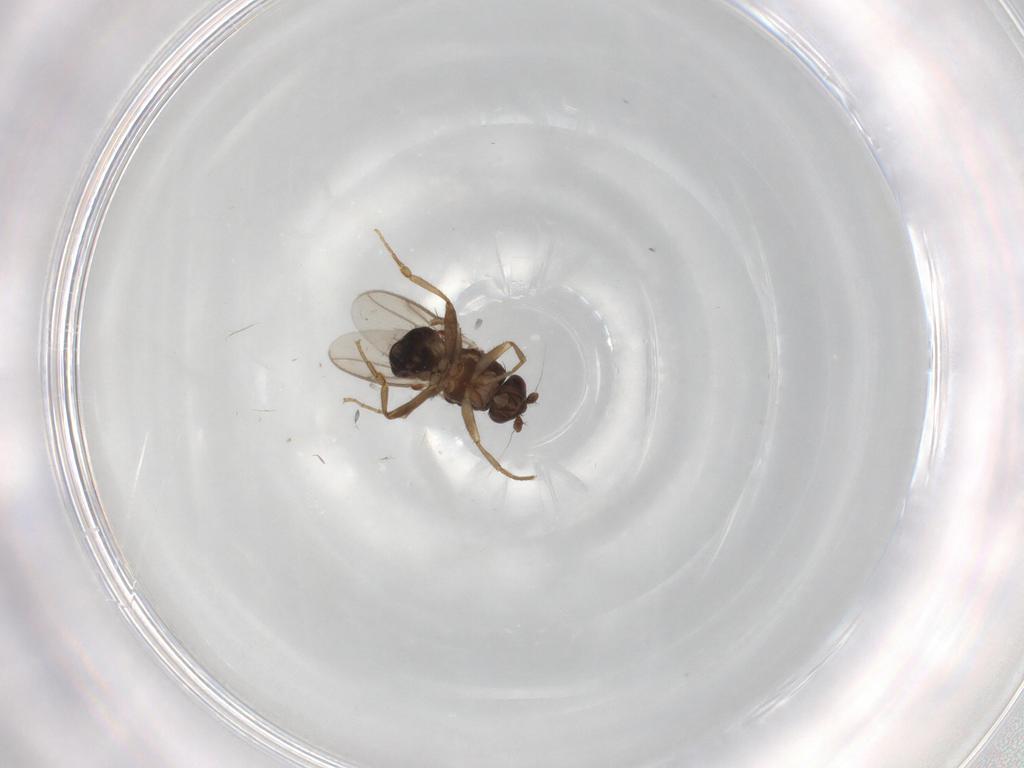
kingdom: Animalia
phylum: Arthropoda
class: Insecta
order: Diptera
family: Sphaeroceridae
